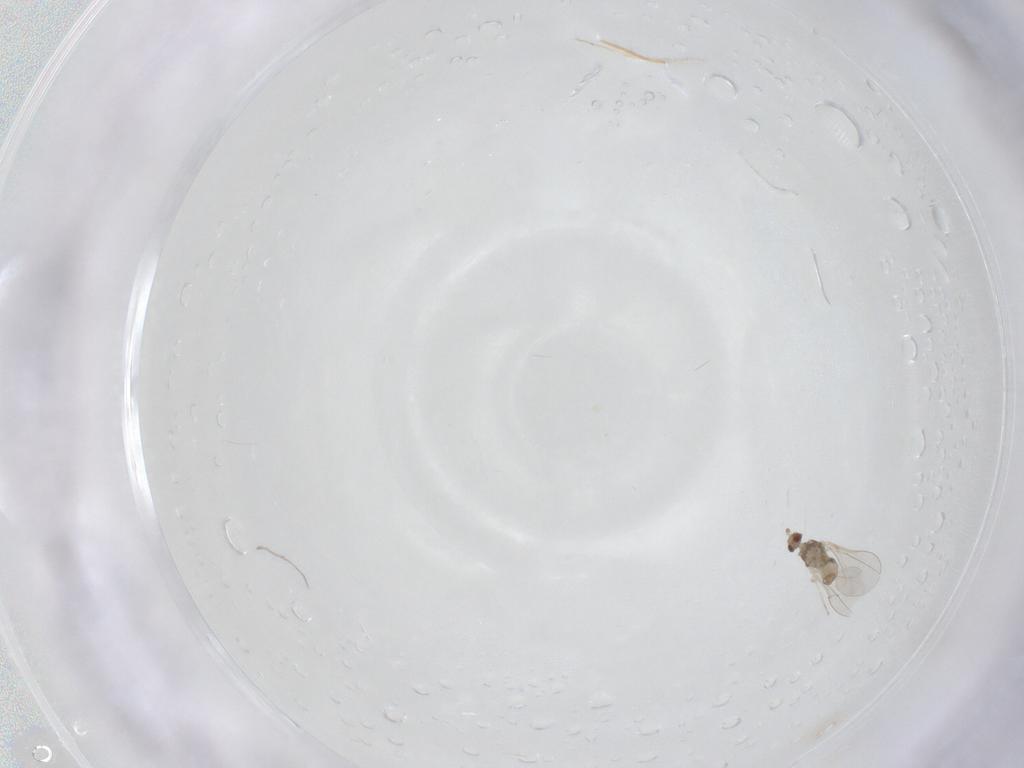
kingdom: Animalia
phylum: Arthropoda
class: Insecta
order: Diptera
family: Cecidomyiidae
